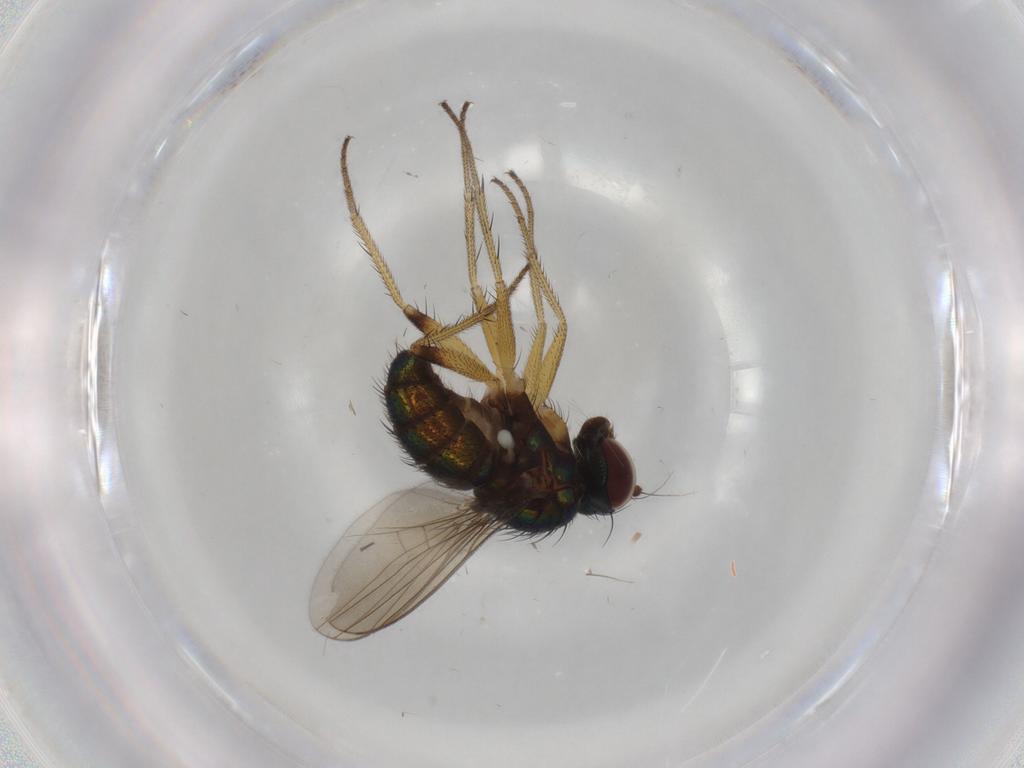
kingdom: Animalia
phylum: Arthropoda
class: Insecta
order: Diptera
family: Dolichopodidae
